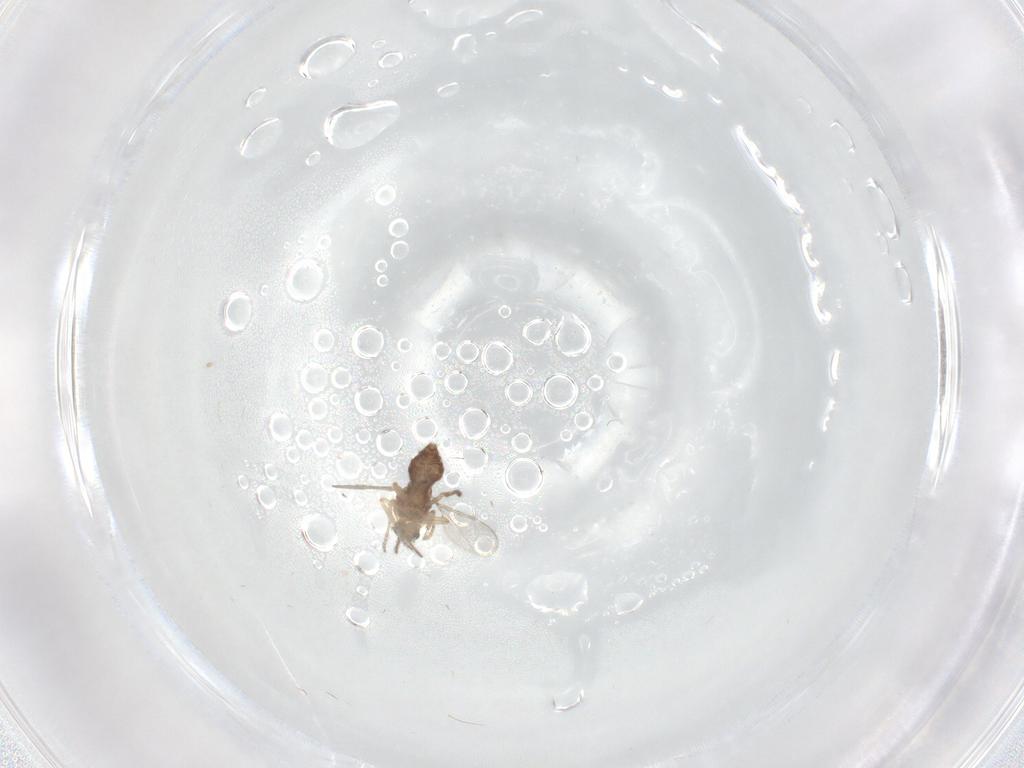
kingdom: Animalia
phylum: Arthropoda
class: Insecta
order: Diptera
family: Ceratopogonidae
